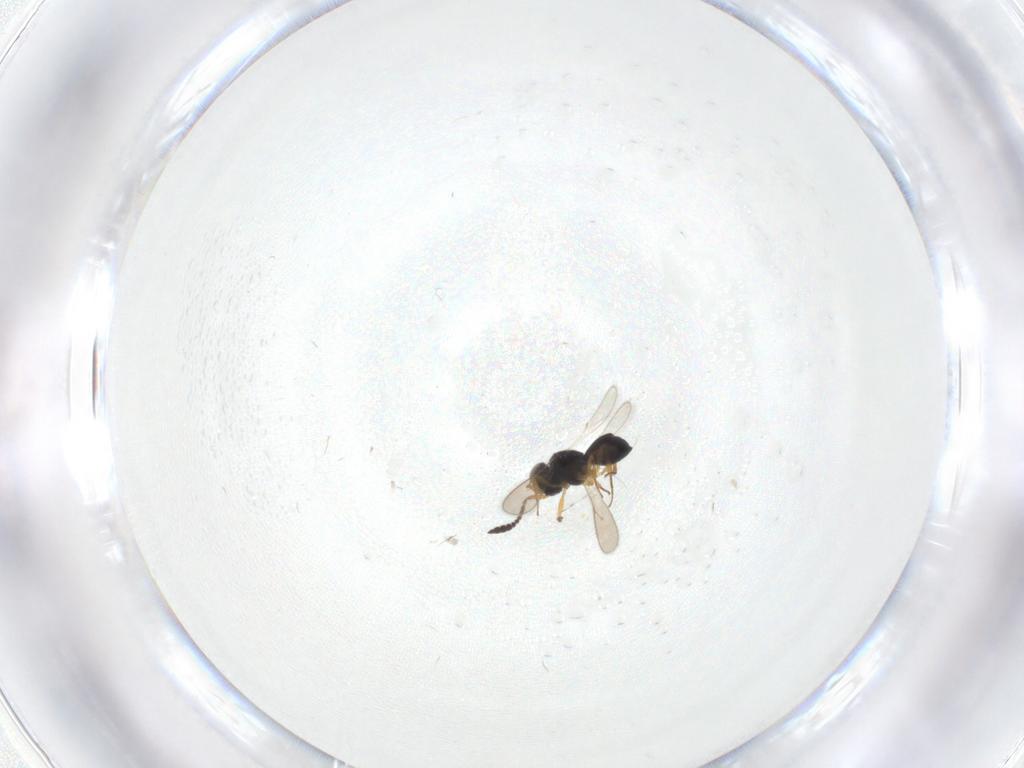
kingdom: Animalia
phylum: Arthropoda
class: Insecta
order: Hymenoptera
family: Scelionidae
